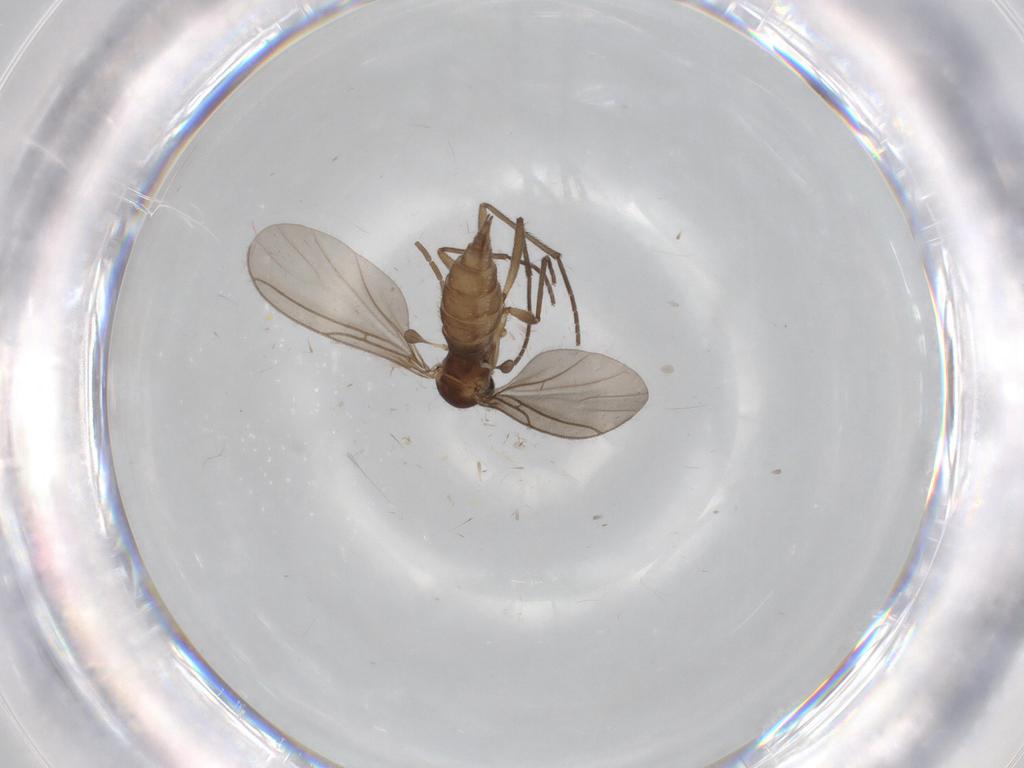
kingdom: Animalia
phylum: Arthropoda
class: Insecta
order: Diptera
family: Sciaridae
